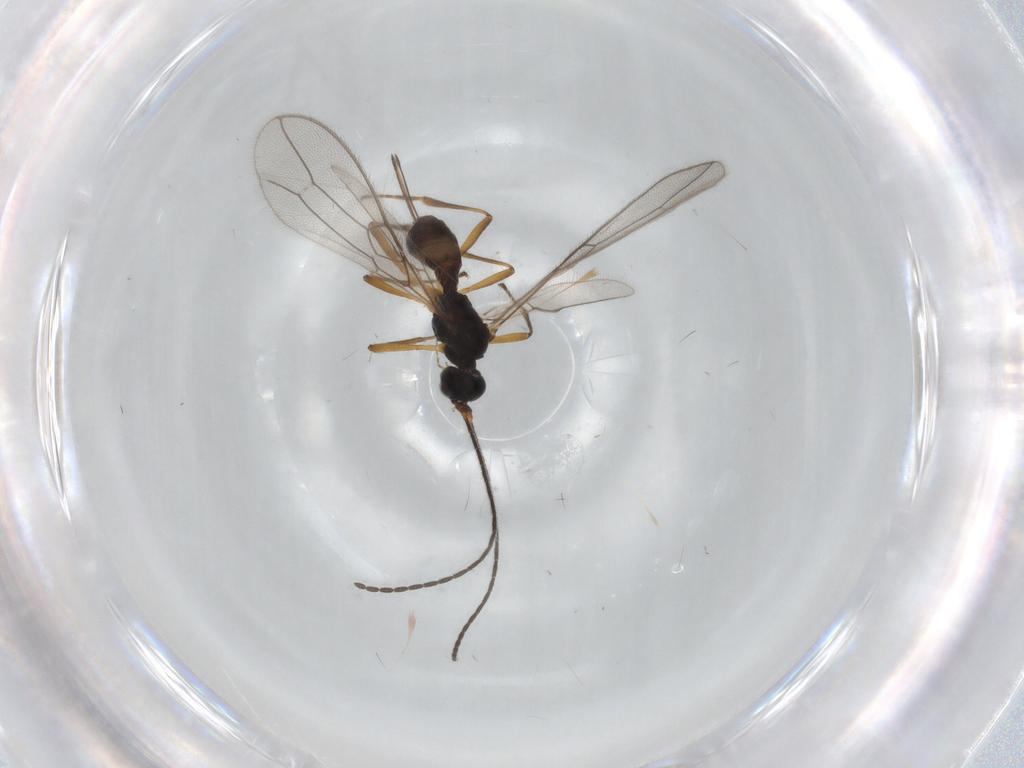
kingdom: Animalia
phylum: Arthropoda
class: Insecta
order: Hymenoptera
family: Braconidae
